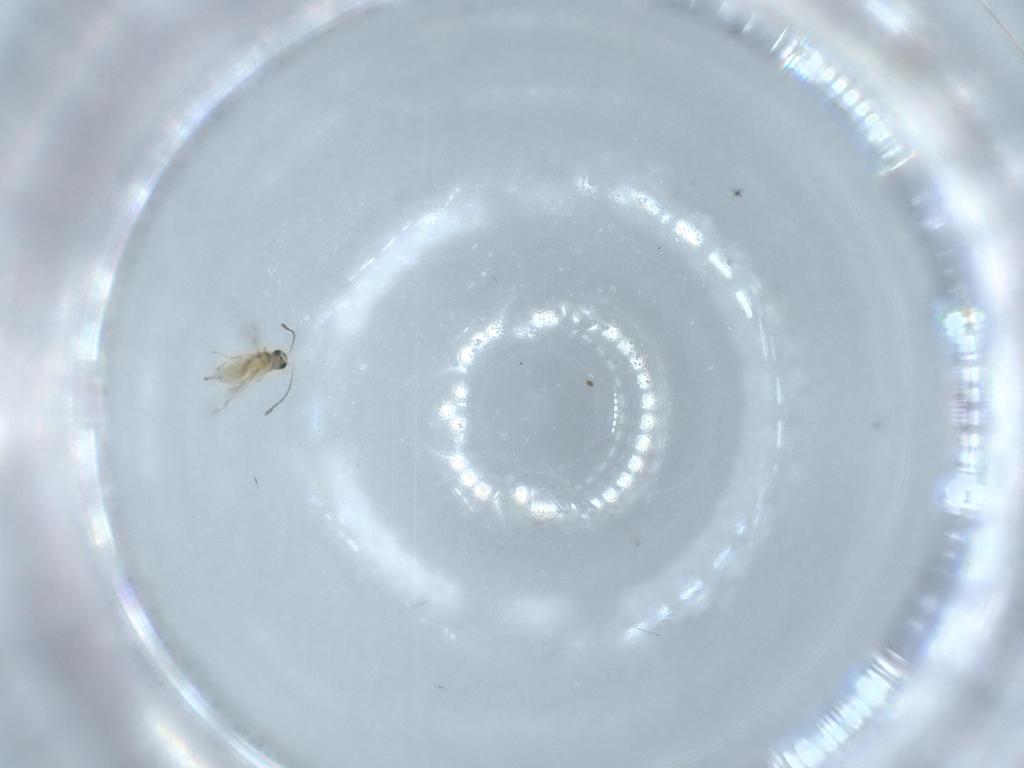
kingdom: Animalia
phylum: Arthropoda
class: Insecta
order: Hymenoptera
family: Mymaridae
